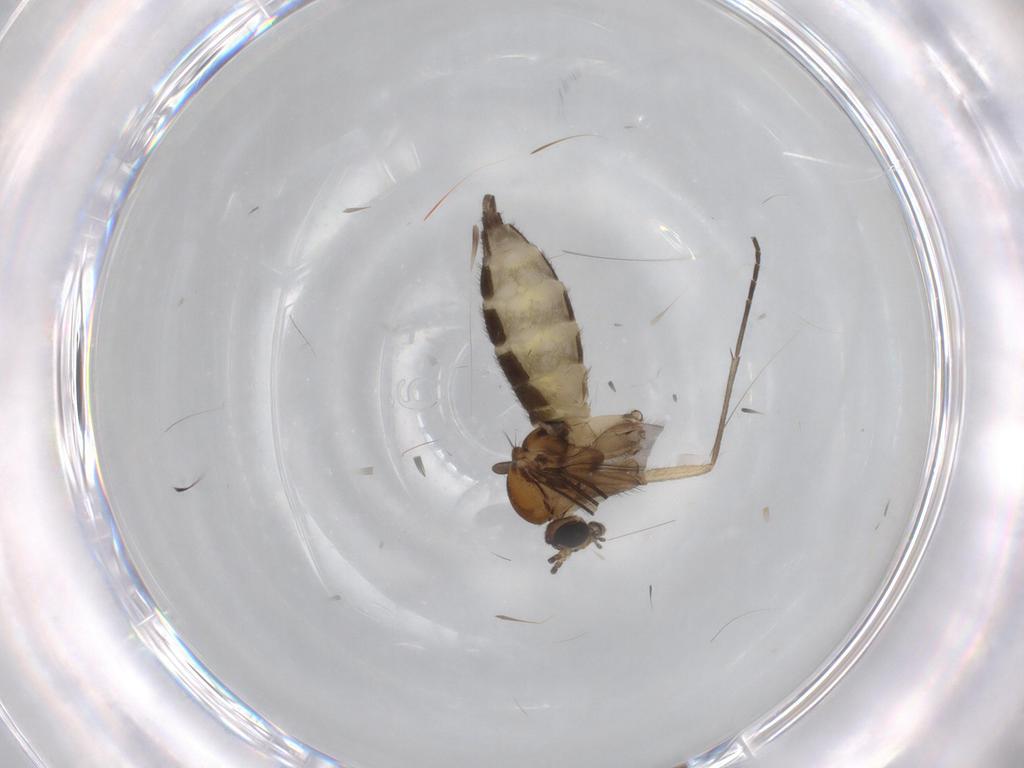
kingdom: Animalia
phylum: Arthropoda
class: Insecta
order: Diptera
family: Sciaridae
